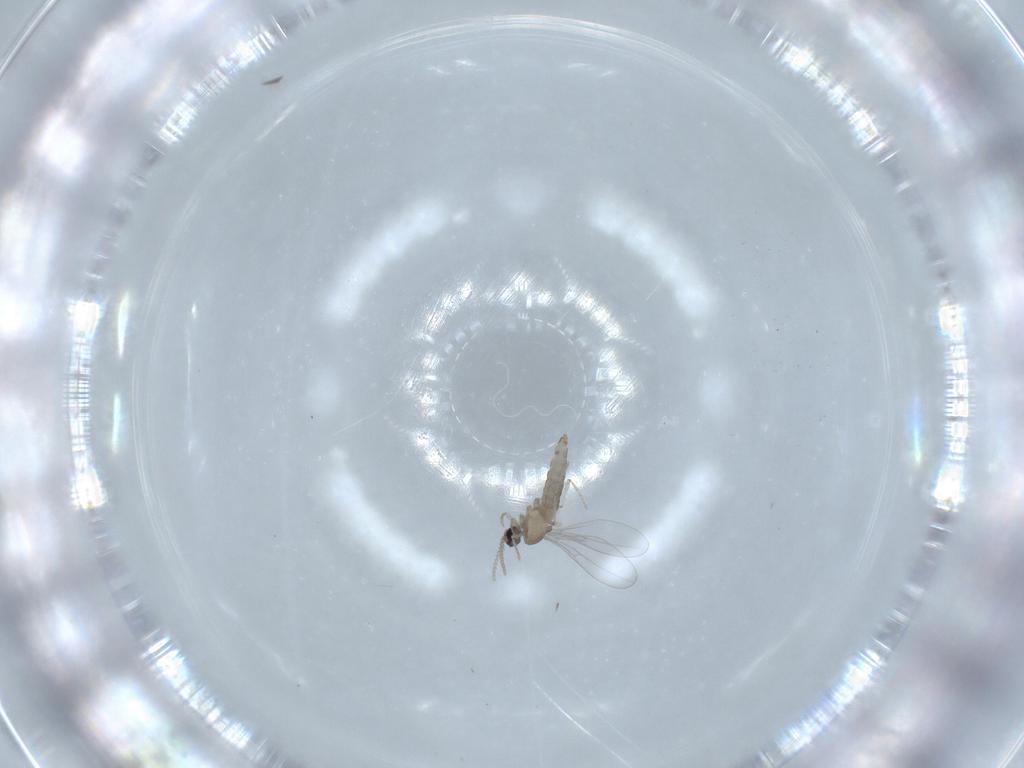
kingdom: Animalia
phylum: Arthropoda
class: Insecta
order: Diptera
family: Cecidomyiidae
